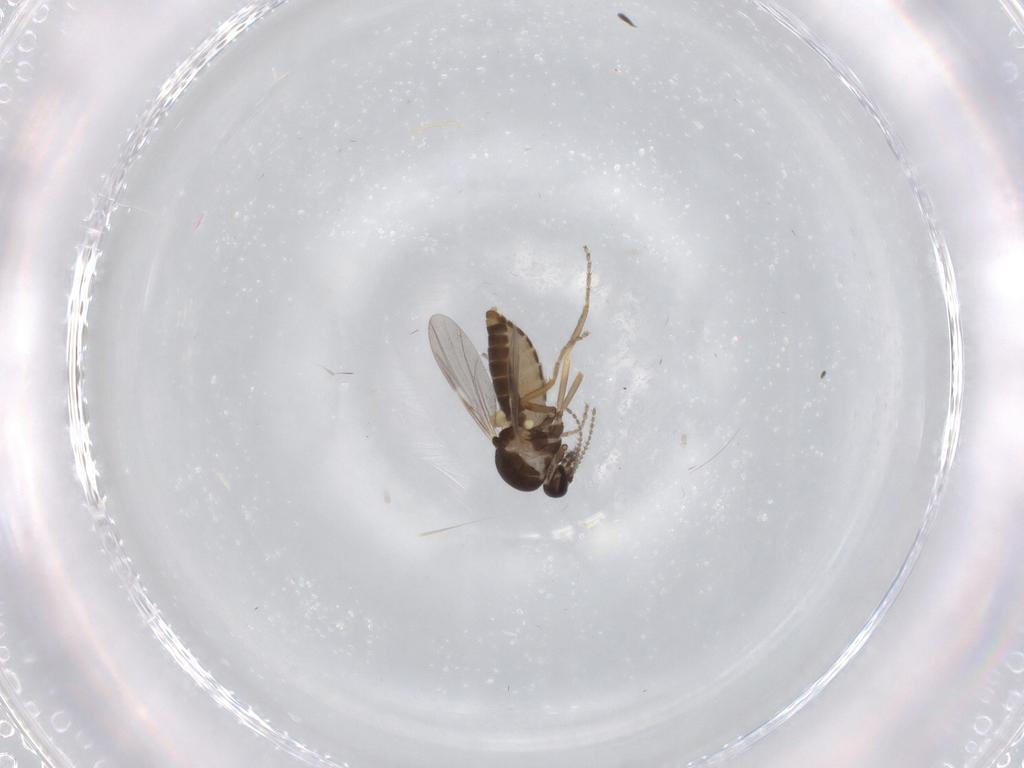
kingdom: Animalia
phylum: Arthropoda
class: Insecta
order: Diptera
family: Ceratopogonidae
